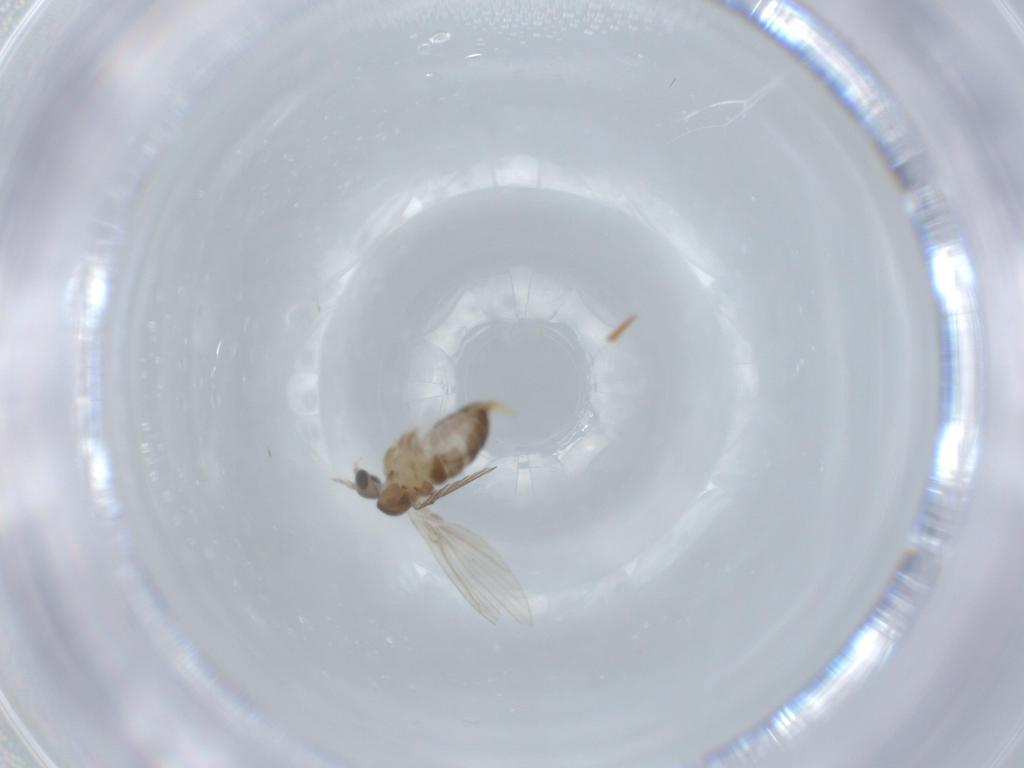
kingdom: Animalia
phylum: Arthropoda
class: Insecta
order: Diptera
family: Psychodidae
